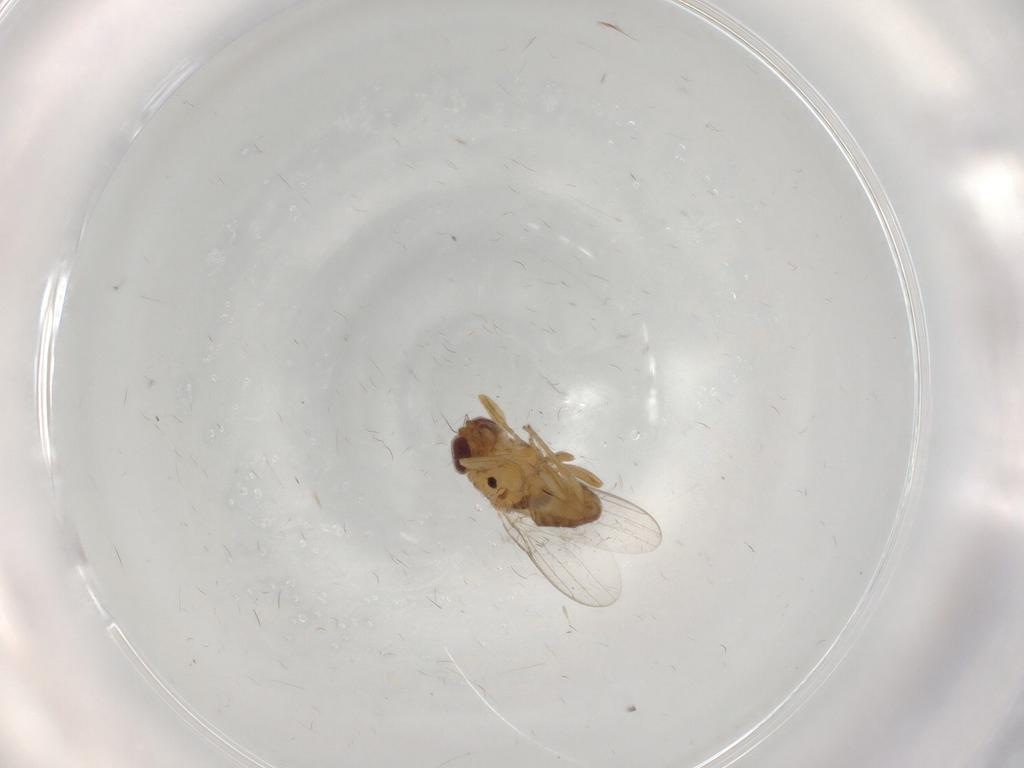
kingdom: Animalia
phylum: Arthropoda
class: Insecta
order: Diptera
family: Chloropidae
